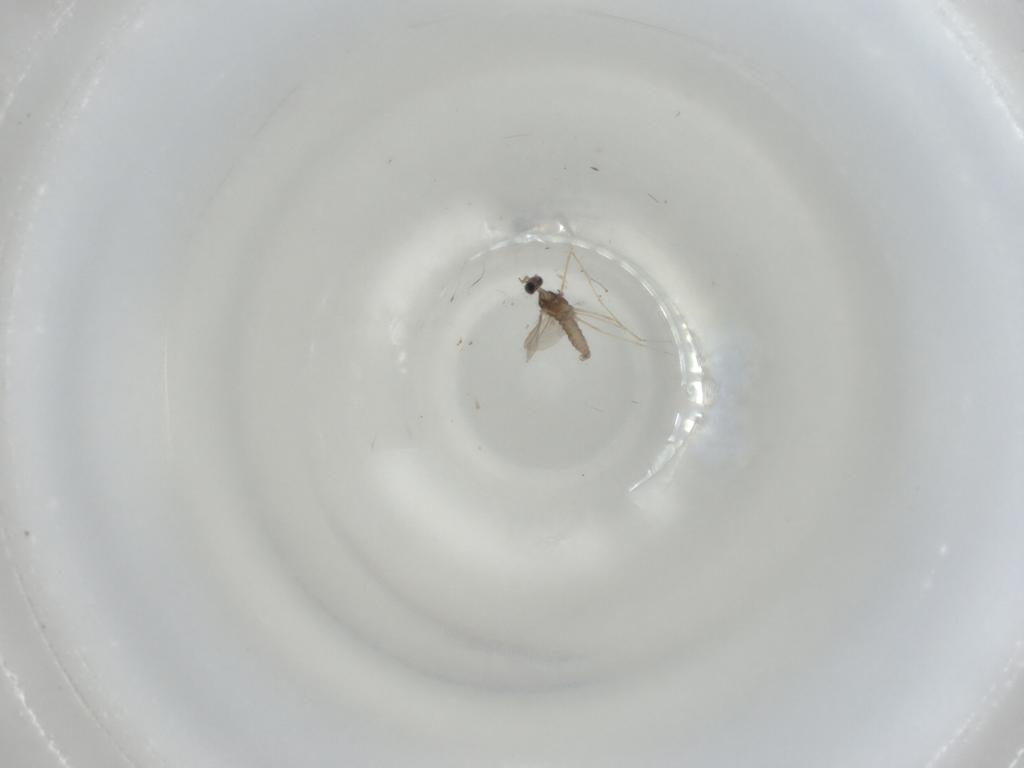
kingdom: Animalia
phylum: Arthropoda
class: Insecta
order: Diptera
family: Cecidomyiidae
